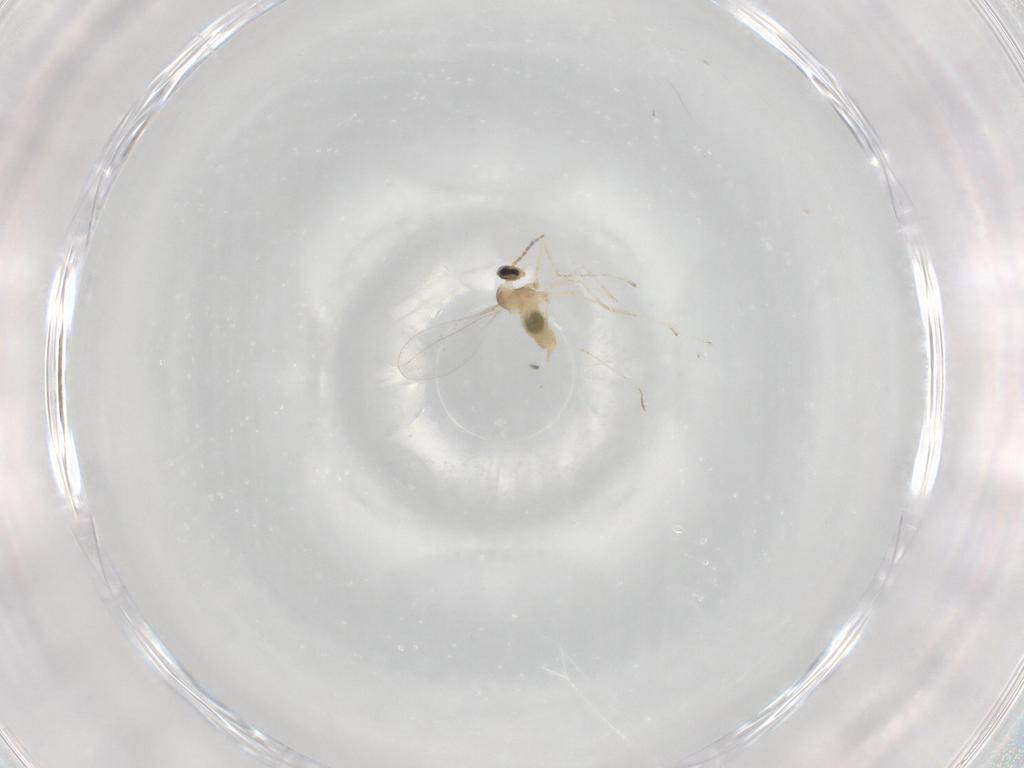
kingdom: Animalia
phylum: Arthropoda
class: Insecta
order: Diptera
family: Cecidomyiidae
